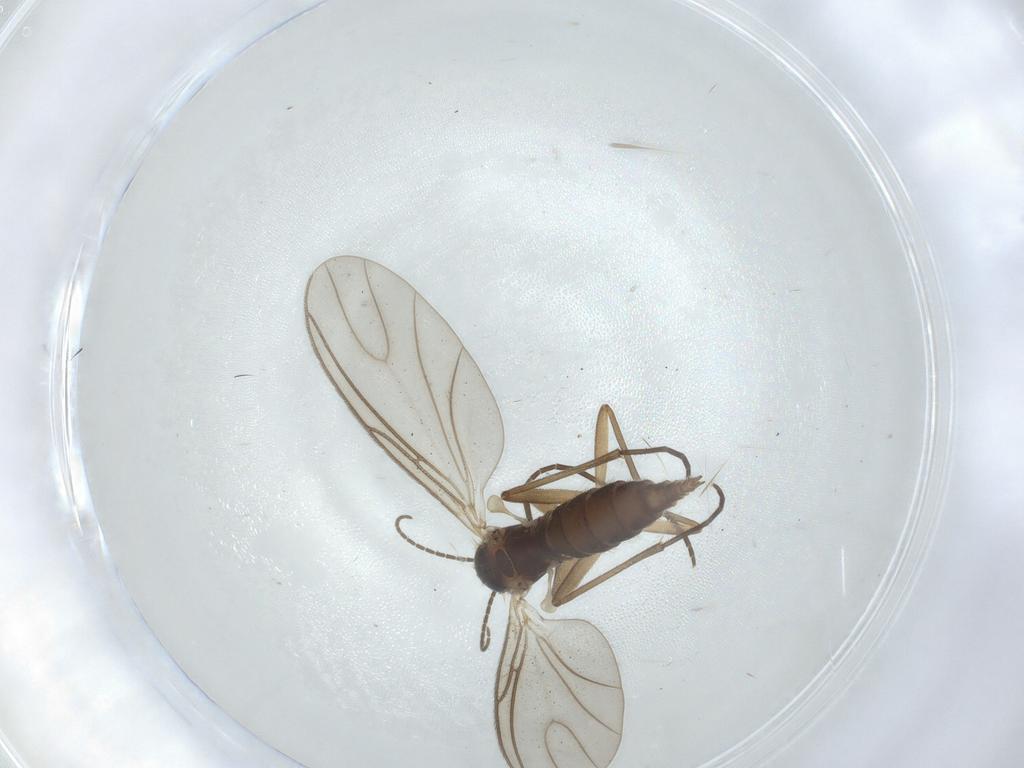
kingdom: Animalia
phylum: Arthropoda
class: Insecta
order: Diptera
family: Sciaridae
